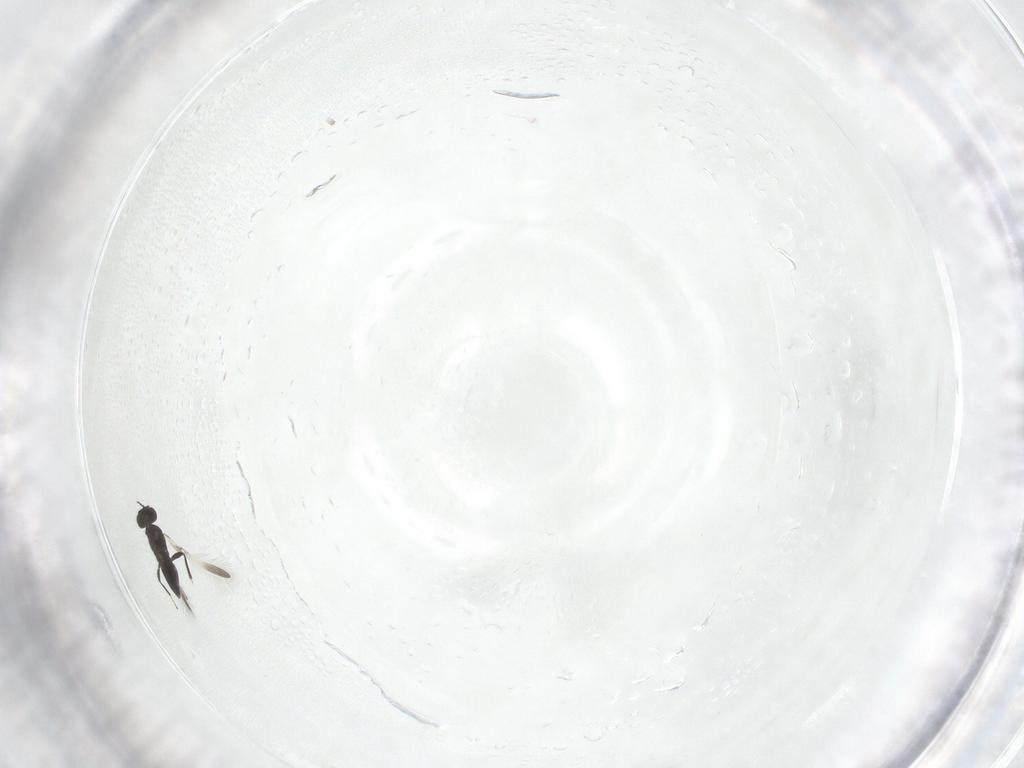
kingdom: Animalia
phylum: Arthropoda
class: Insecta
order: Hymenoptera
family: Mymaridae
